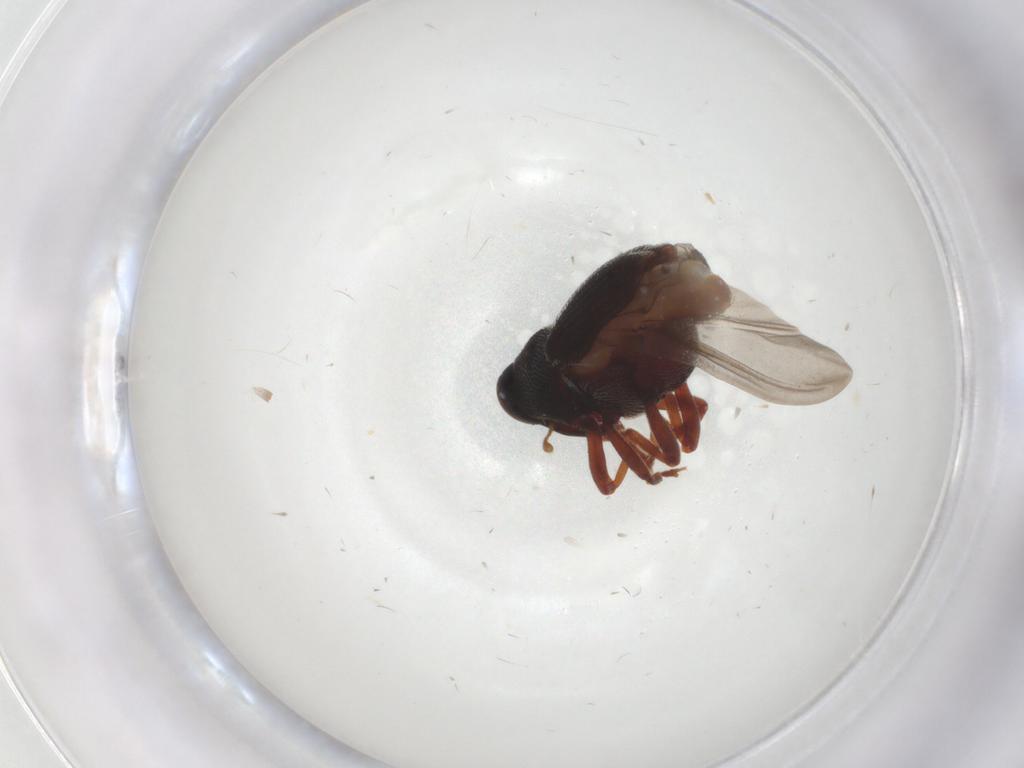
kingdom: Animalia
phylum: Arthropoda
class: Insecta
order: Coleoptera
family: Curculionidae
